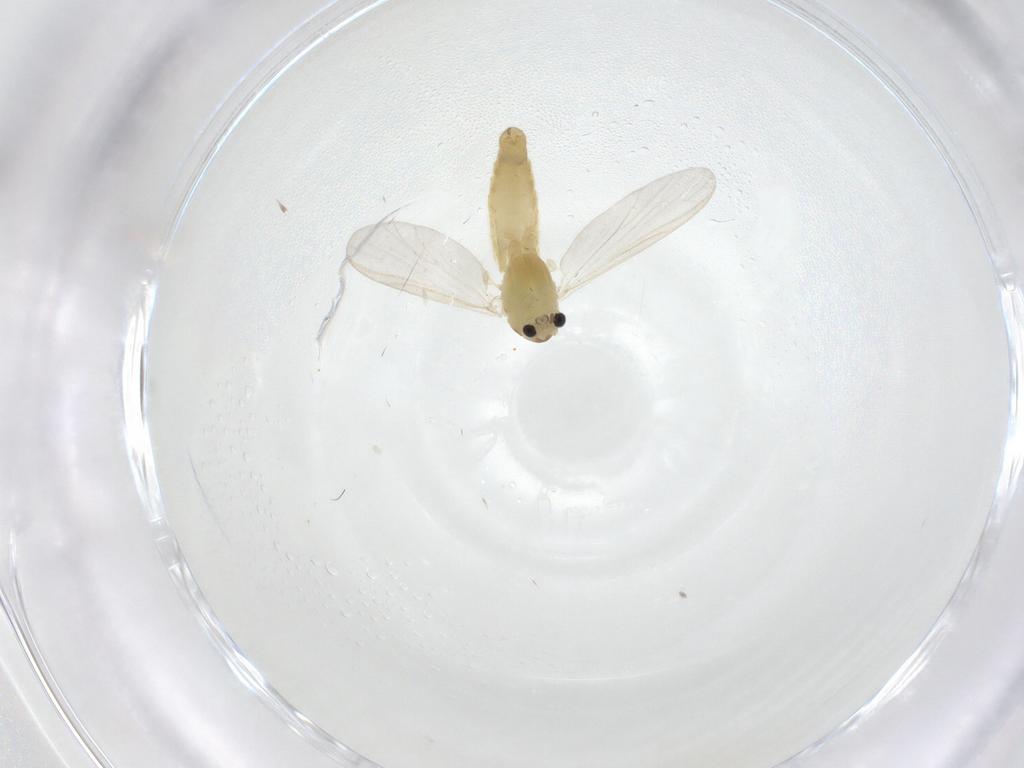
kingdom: Animalia
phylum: Arthropoda
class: Insecta
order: Diptera
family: Chironomidae
